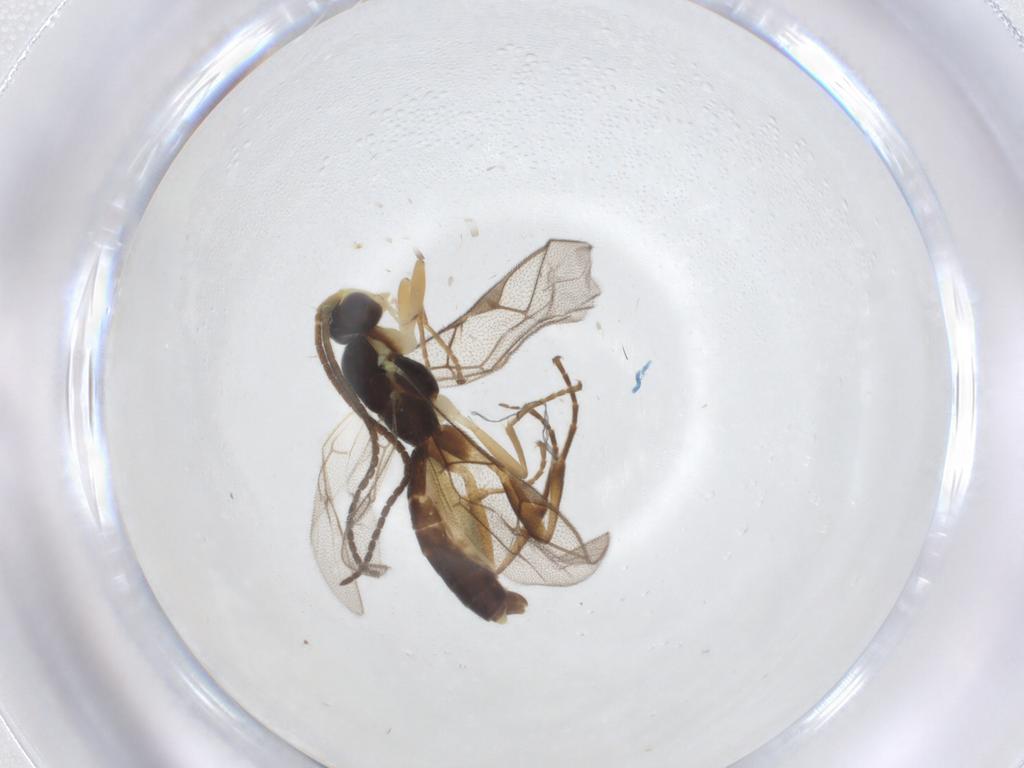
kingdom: Animalia
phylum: Arthropoda
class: Insecta
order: Hymenoptera
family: Ichneumonidae
